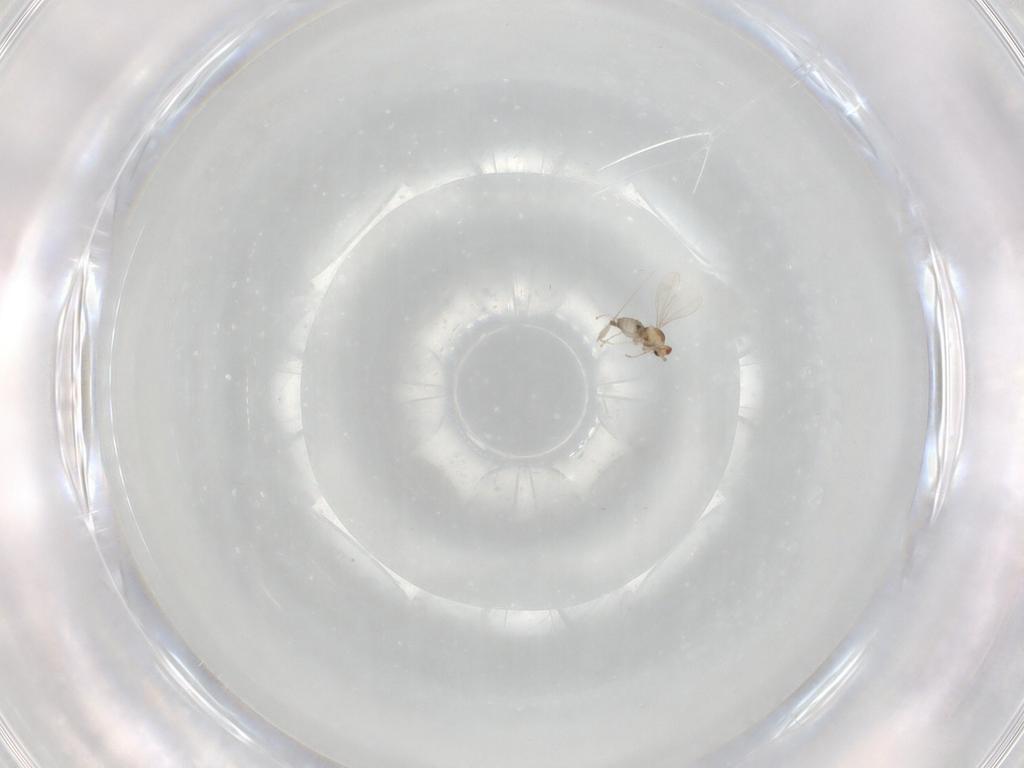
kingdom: Animalia
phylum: Arthropoda
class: Insecta
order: Diptera
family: Cecidomyiidae
